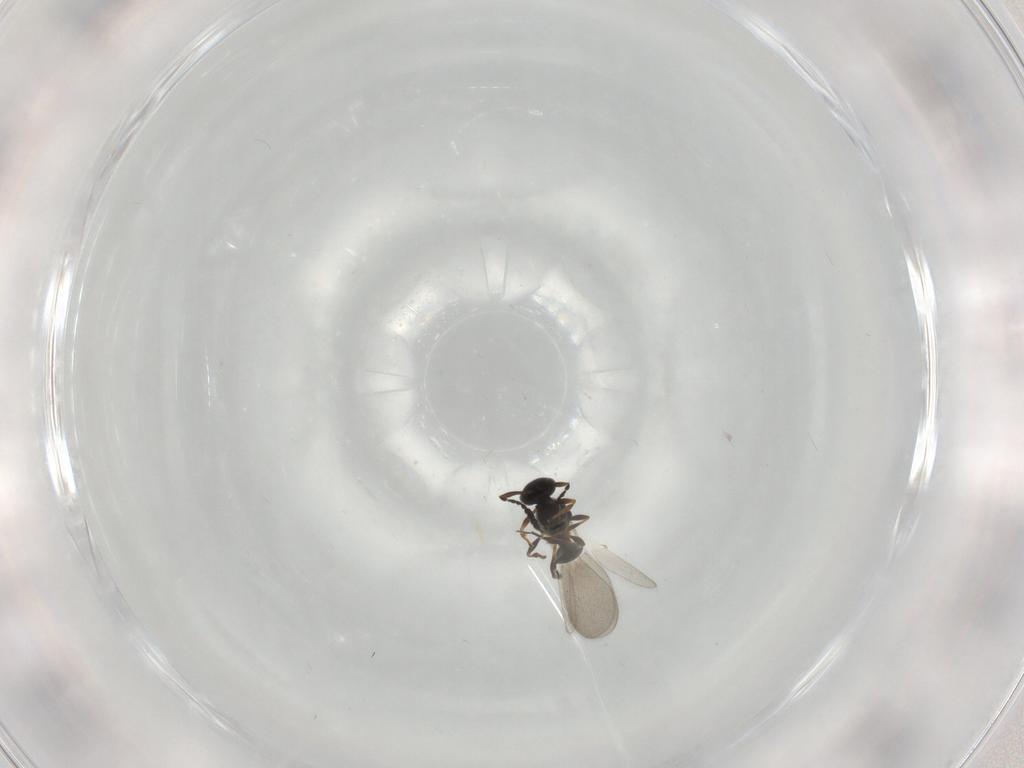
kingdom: Animalia
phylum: Arthropoda
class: Insecta
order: Hymenoptera
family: Platygastridae
